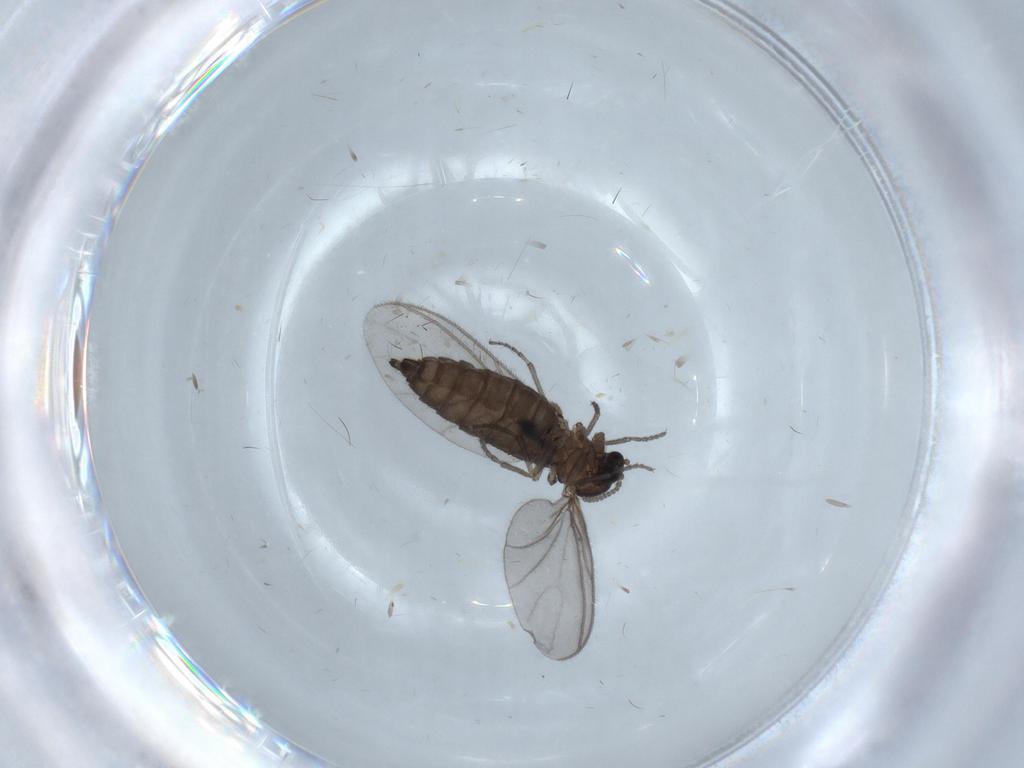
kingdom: Animalia
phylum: Arthropoda
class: Insecta
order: Diptera
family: Sciaridae
